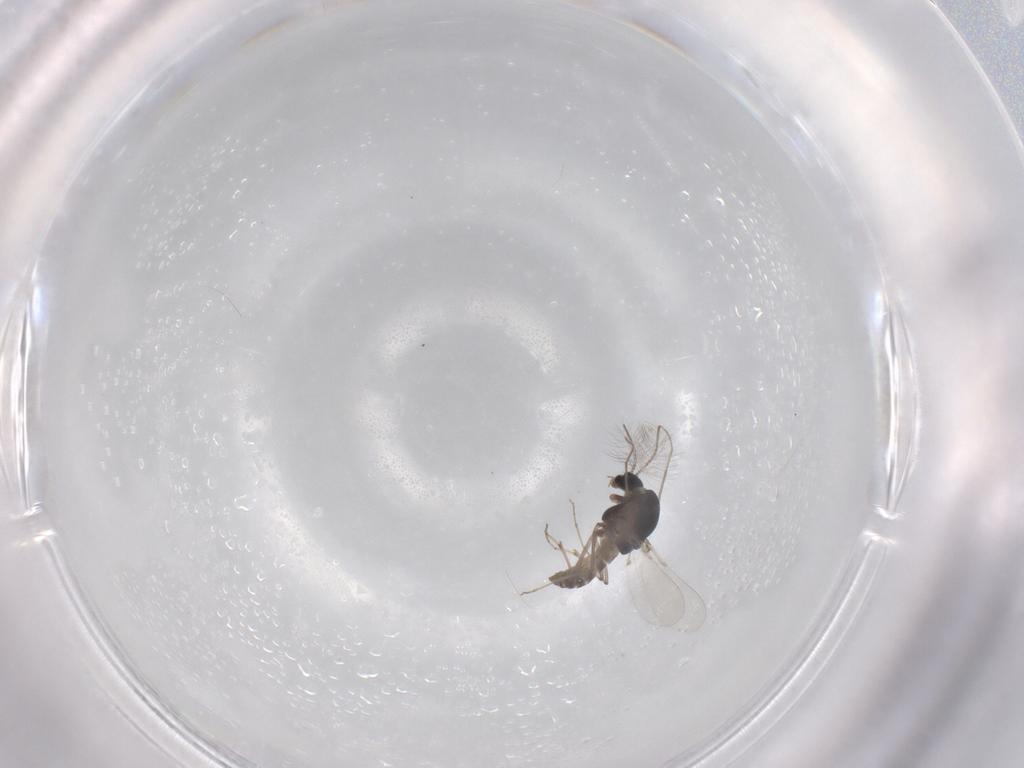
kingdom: Animalia
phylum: Arthropoda
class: Insecta
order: Diptera
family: Chironomidae
